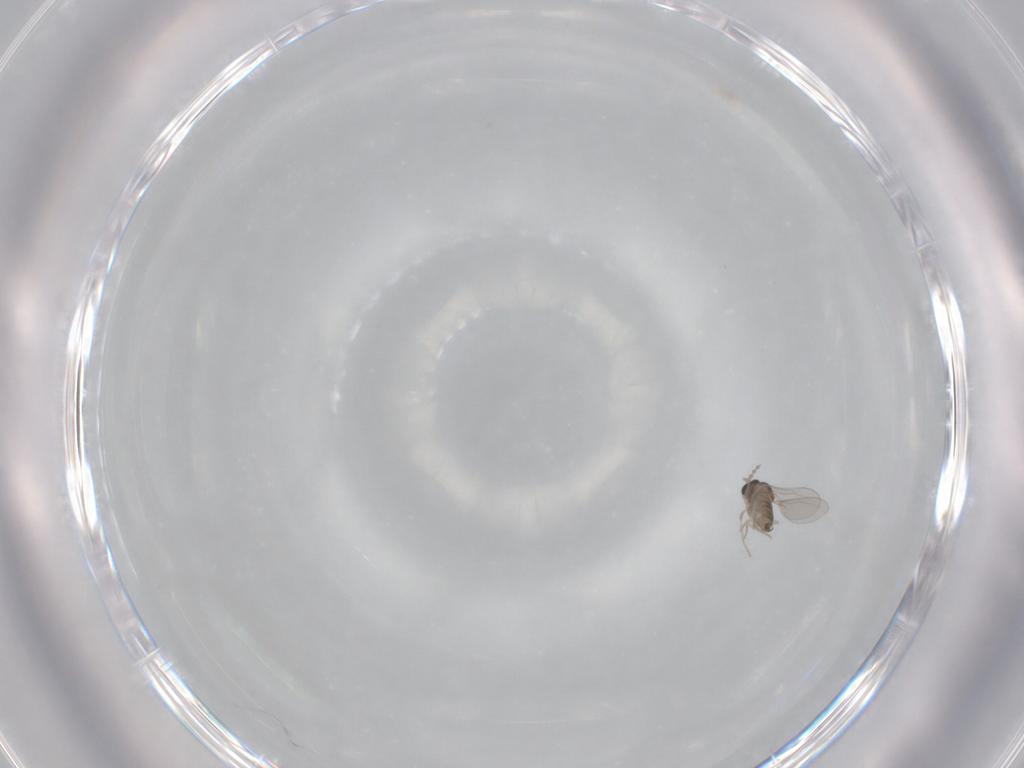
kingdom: Animalia
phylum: Arthropoda
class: Insecta
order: Diptera
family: Cecidomyiidae
